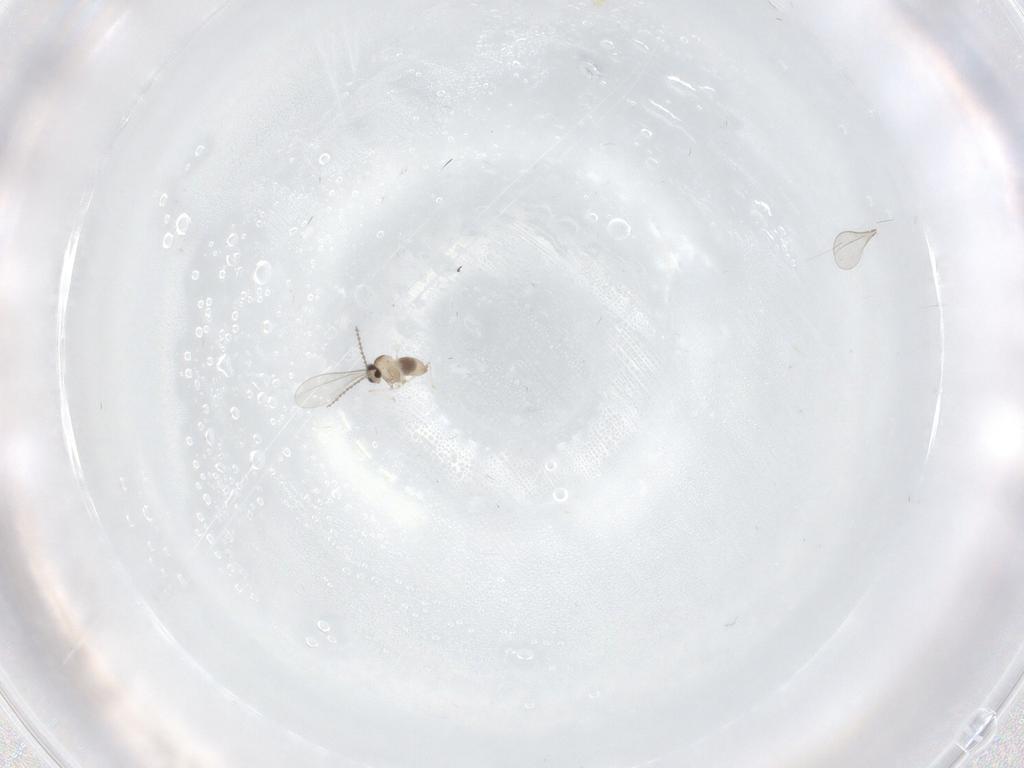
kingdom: Animalia
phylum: Arthropoda
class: Insecta
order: Diptera
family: Cecidomyiidae
